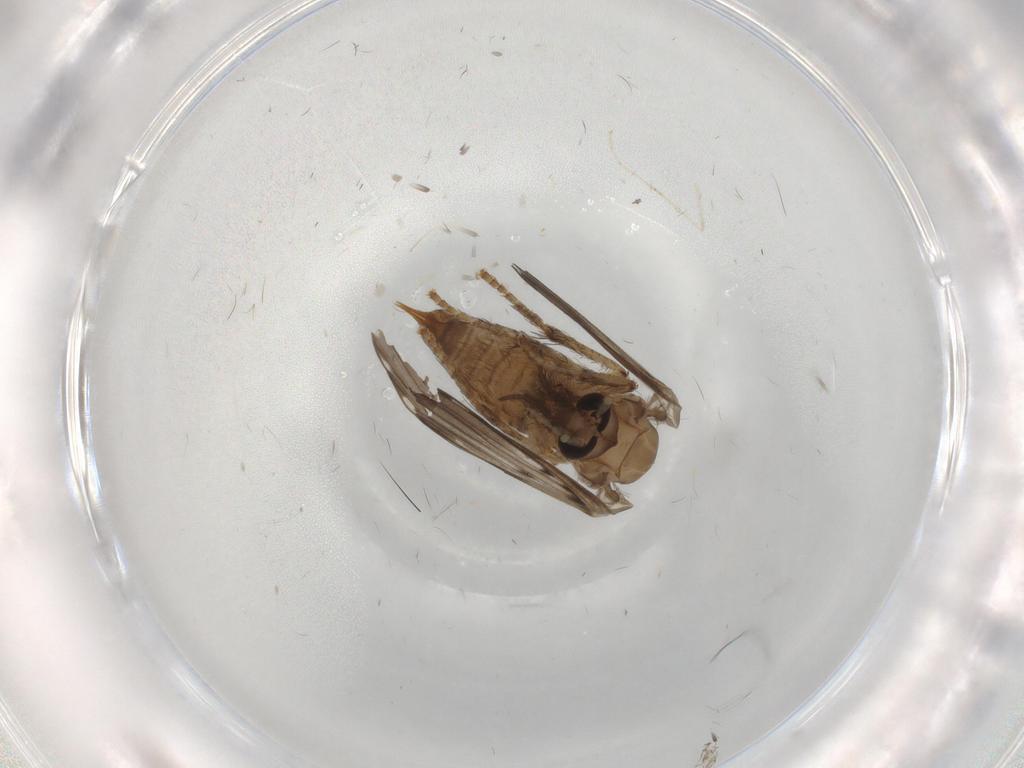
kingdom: Animalia
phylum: Arthropoda
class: Insecta
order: Diptera
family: Psychodidae
